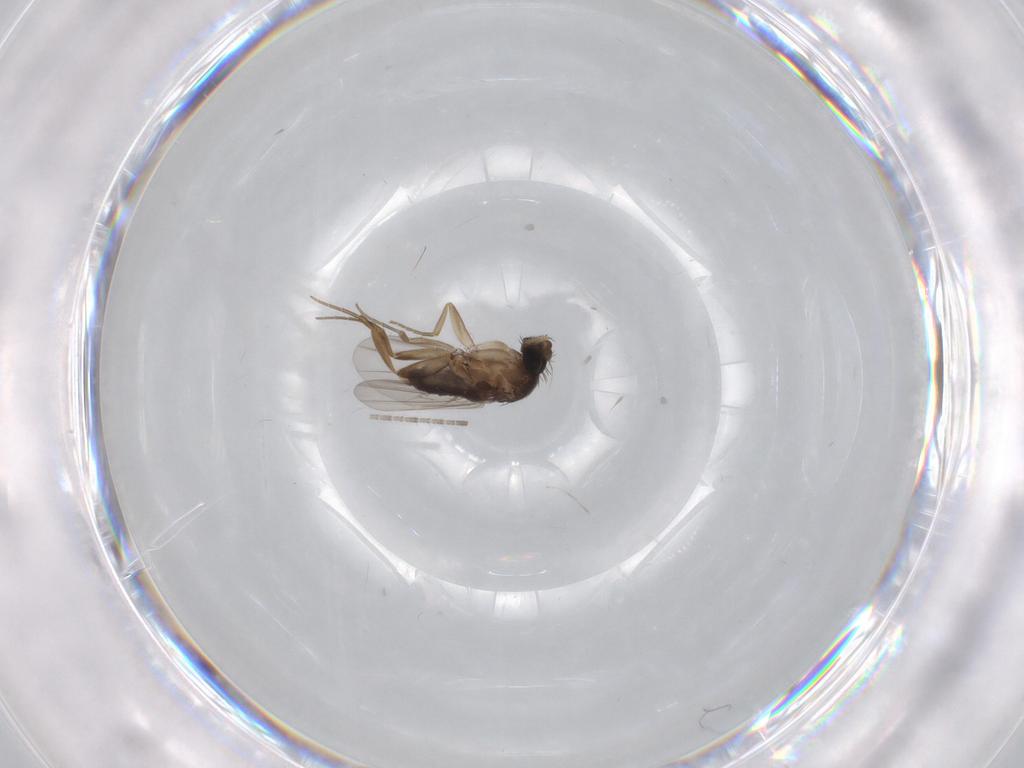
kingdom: Animalia
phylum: Arthropoda
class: Insecta
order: Diptera
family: Phoridae
